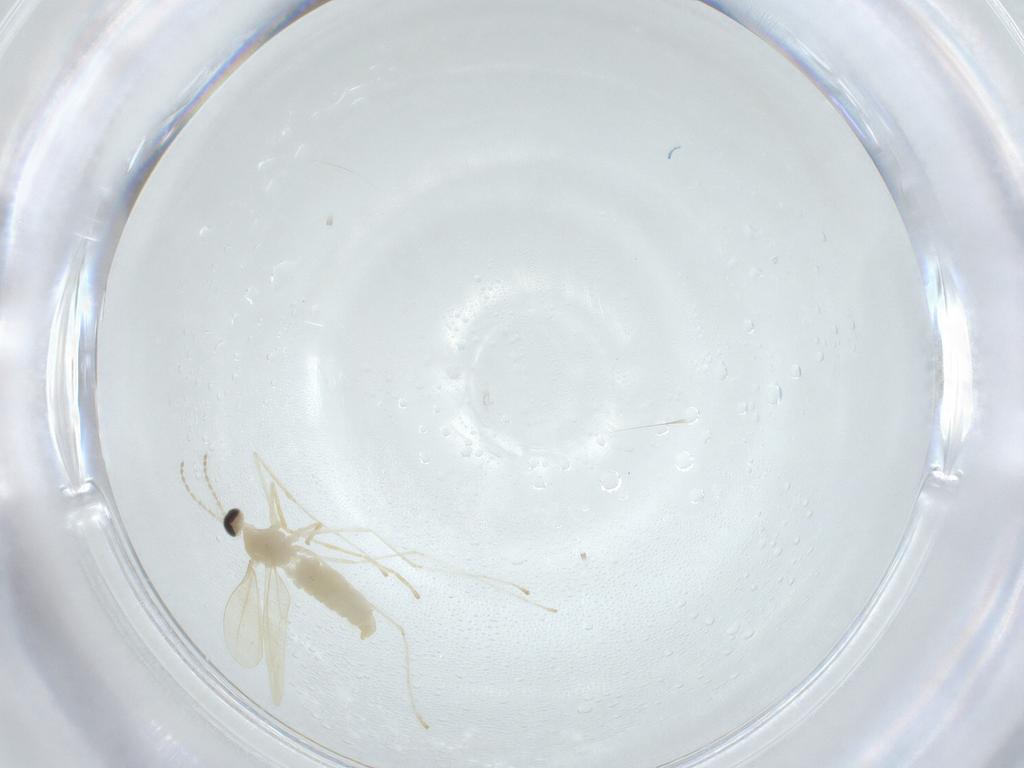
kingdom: Animalia
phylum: Arthropoda
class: Insecta
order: Diptera
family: Cecidomyiidae
